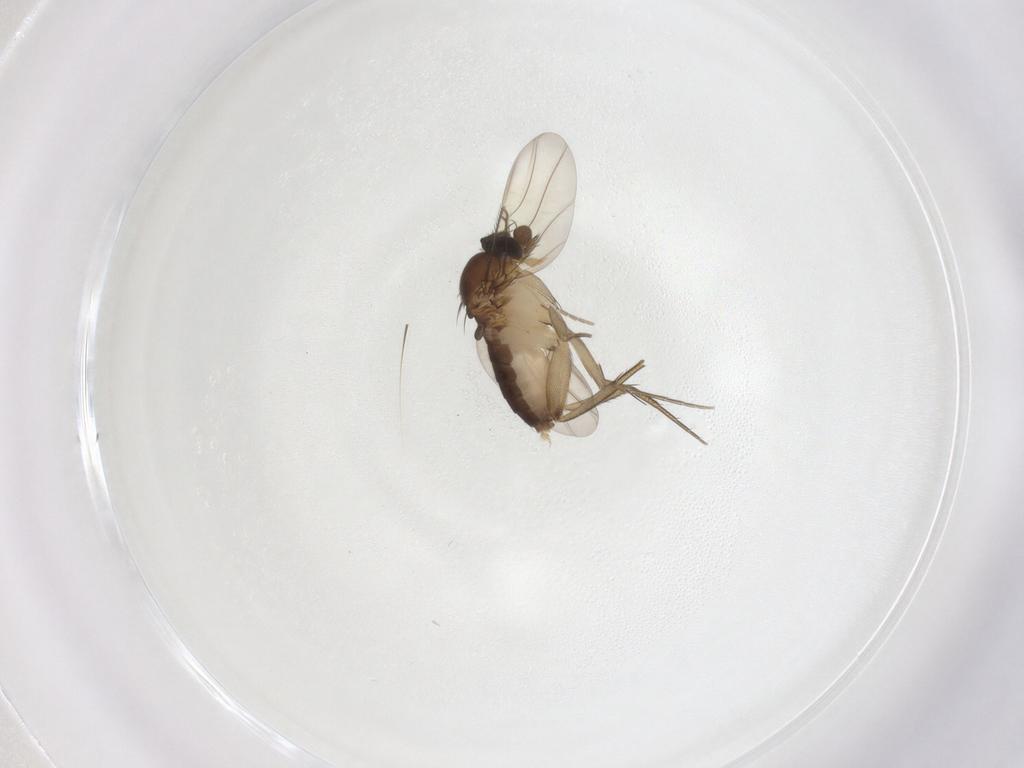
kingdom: Animalia
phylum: Arthropoda
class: Insecta
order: Diptera
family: Phoridae
